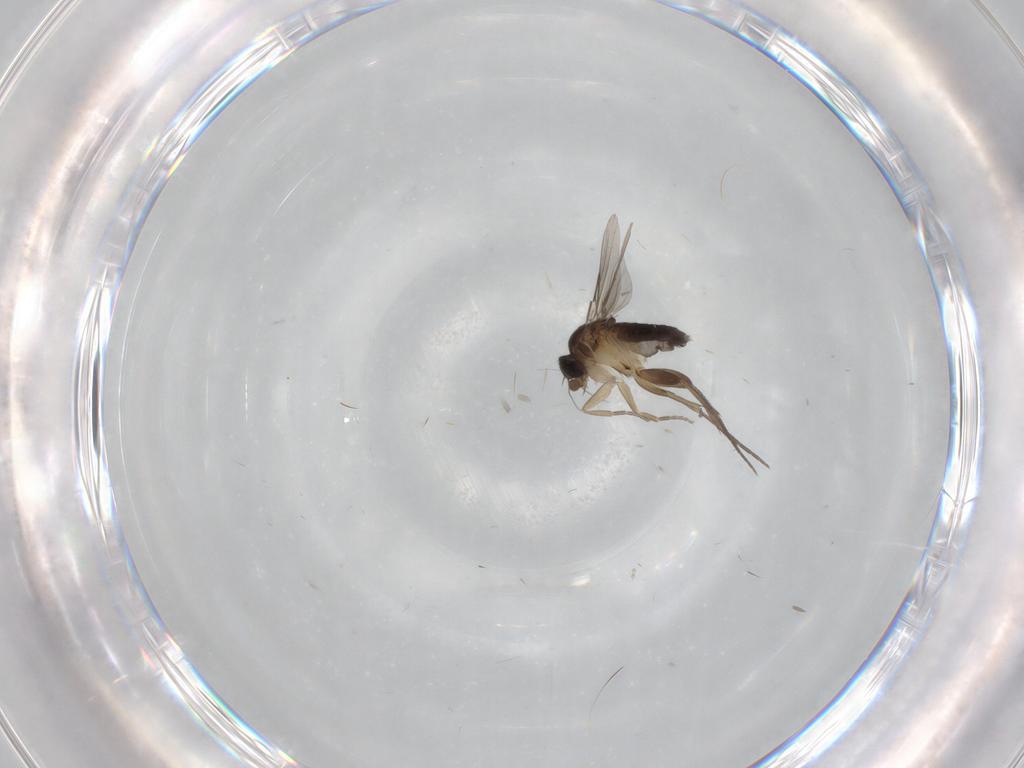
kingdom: Animalia
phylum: Arthropoda
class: Insecta
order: Diptera
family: Phoridae
